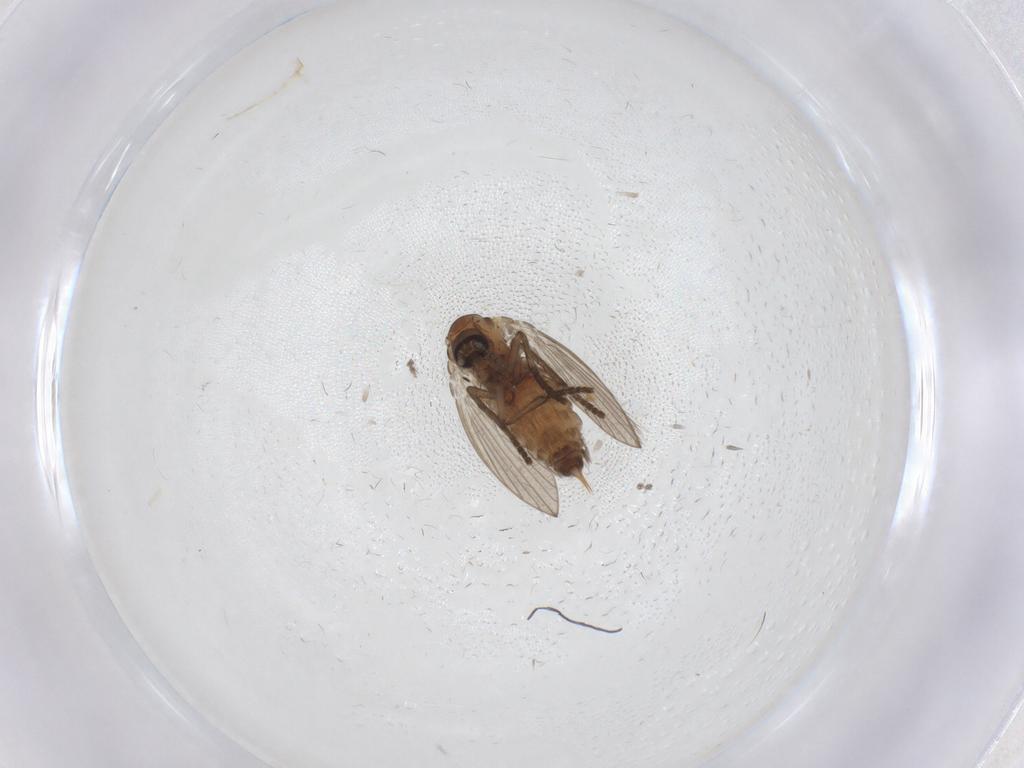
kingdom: Animalia
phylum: Arthropoda
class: Insecta
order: Diptera
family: Psychodidae
